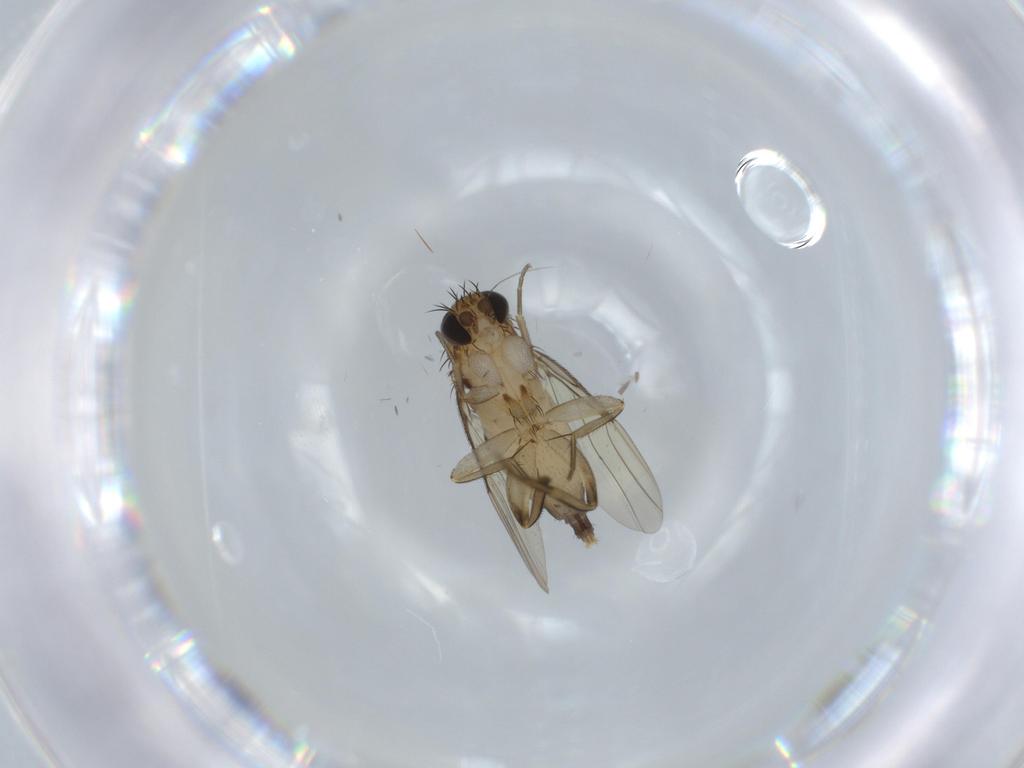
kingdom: Animalia
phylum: Arthropoda
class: Insecta
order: Diptera
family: Phoridae
